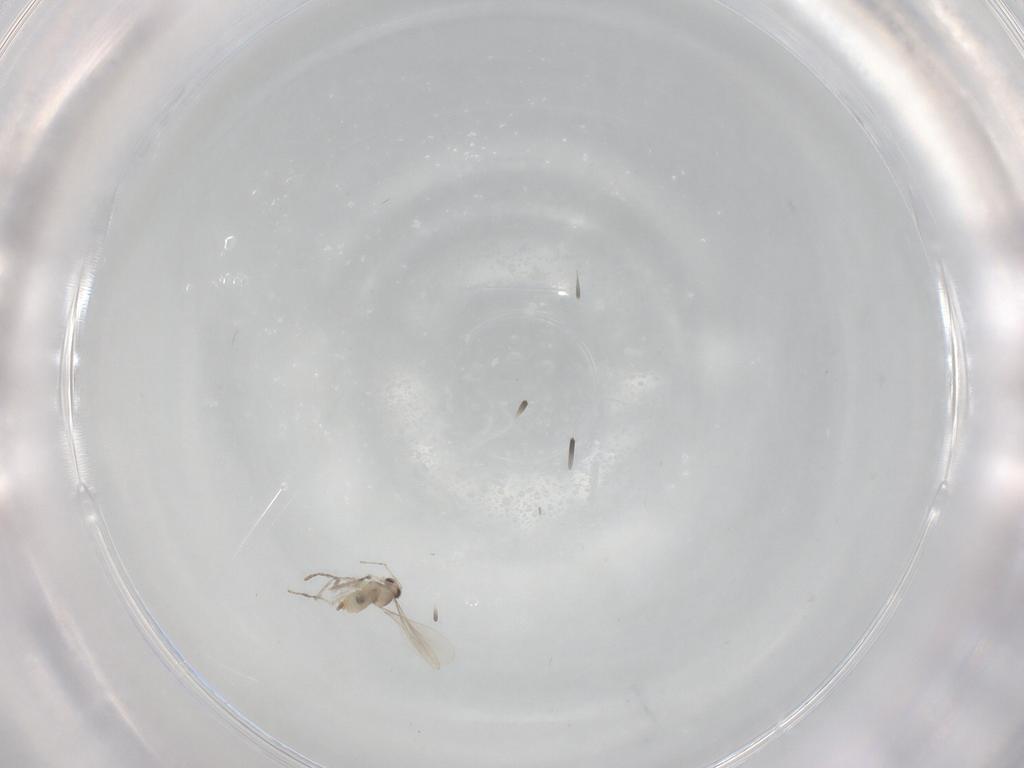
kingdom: Animalia
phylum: Arthropoda
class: Insecta
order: Diptera
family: Cecidomyiidae
